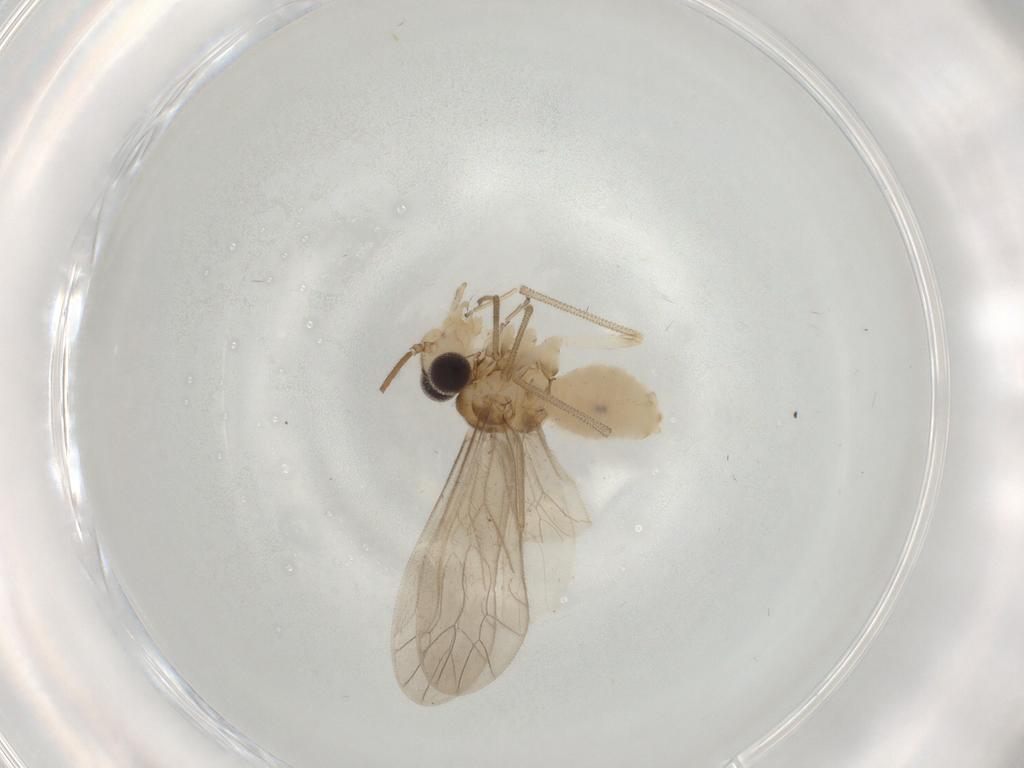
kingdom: Animalia
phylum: Arthropoda
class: Insecta
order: Psocodea
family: Caeciliusidae
